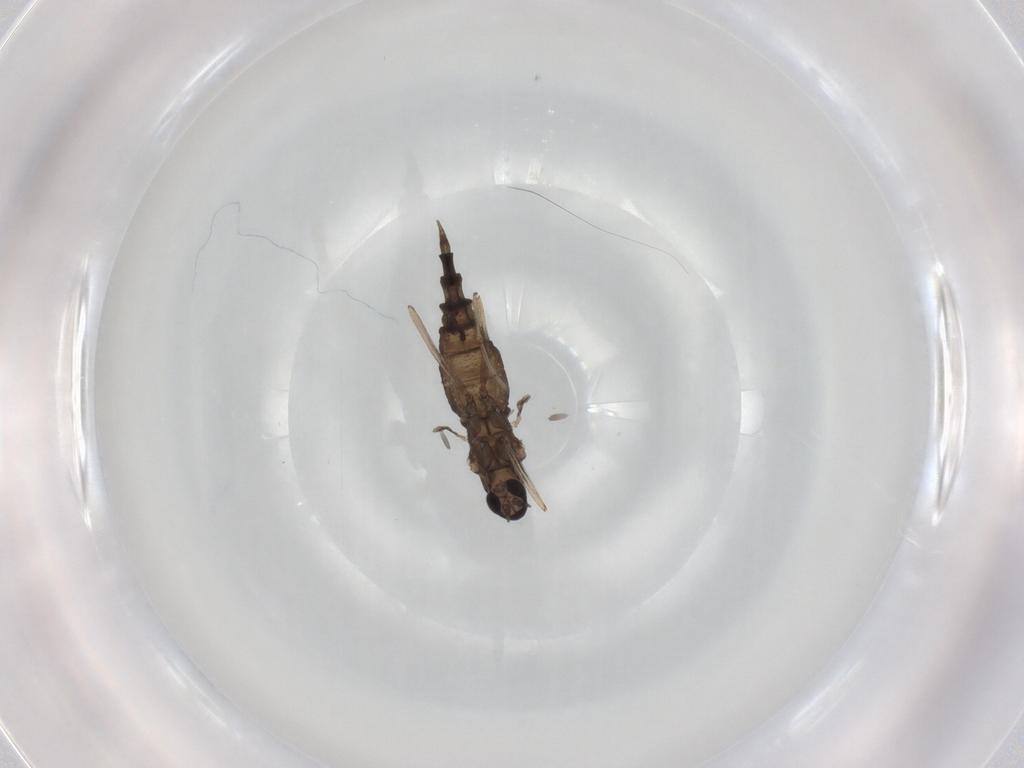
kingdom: Animalia
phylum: Arthropoda
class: Insecta
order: Diptera
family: Cecidomyiidae
